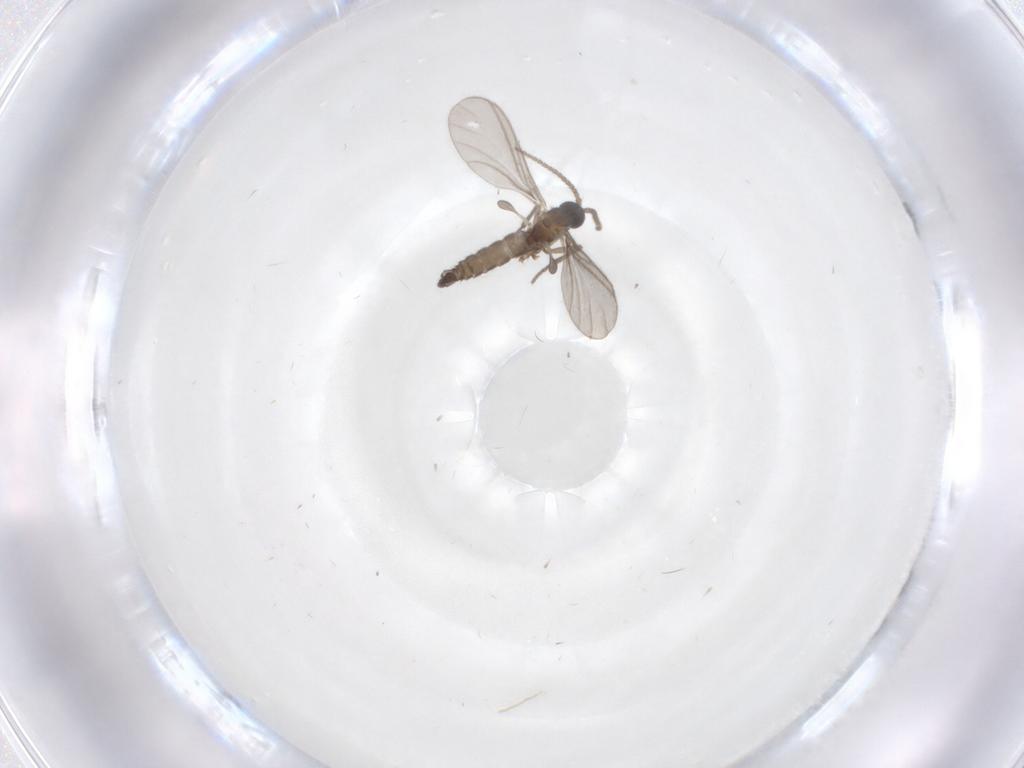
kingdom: Animalia
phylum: Arthropoda
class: Insecta
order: Diptera
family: Sciaridae
